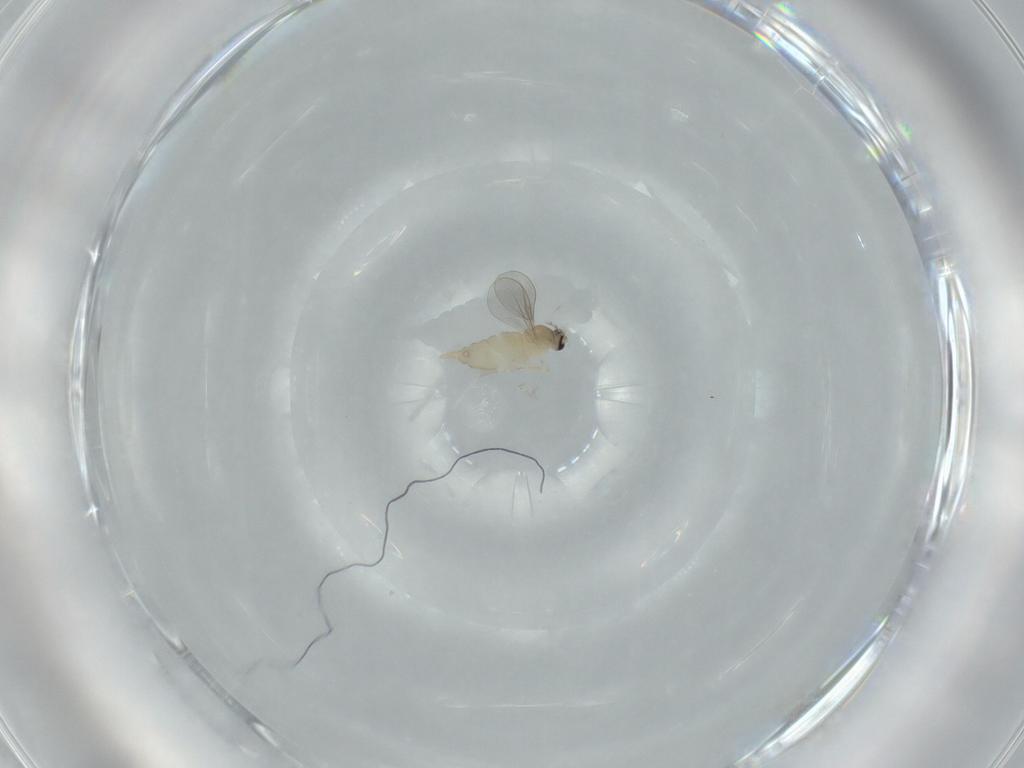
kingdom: Animalia
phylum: Arthropoda
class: Insecta
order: Diptera
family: Cecidomyiidae
